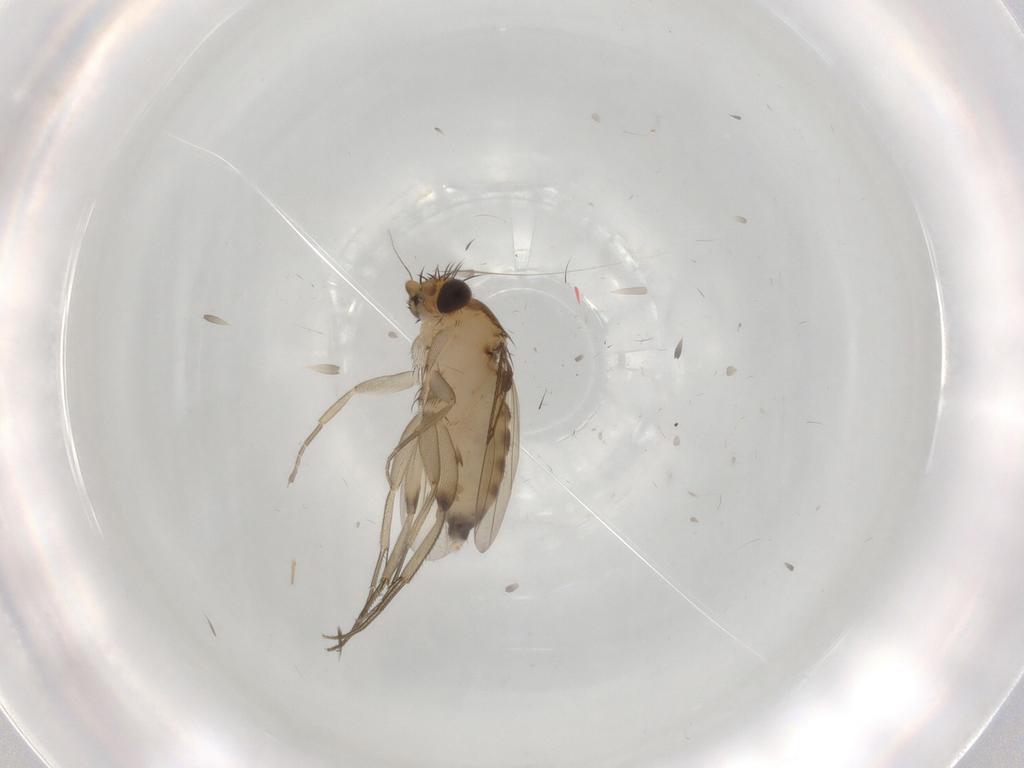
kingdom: Animalia
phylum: Arthropoda
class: Insecta
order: Diptera
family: Phoridae
